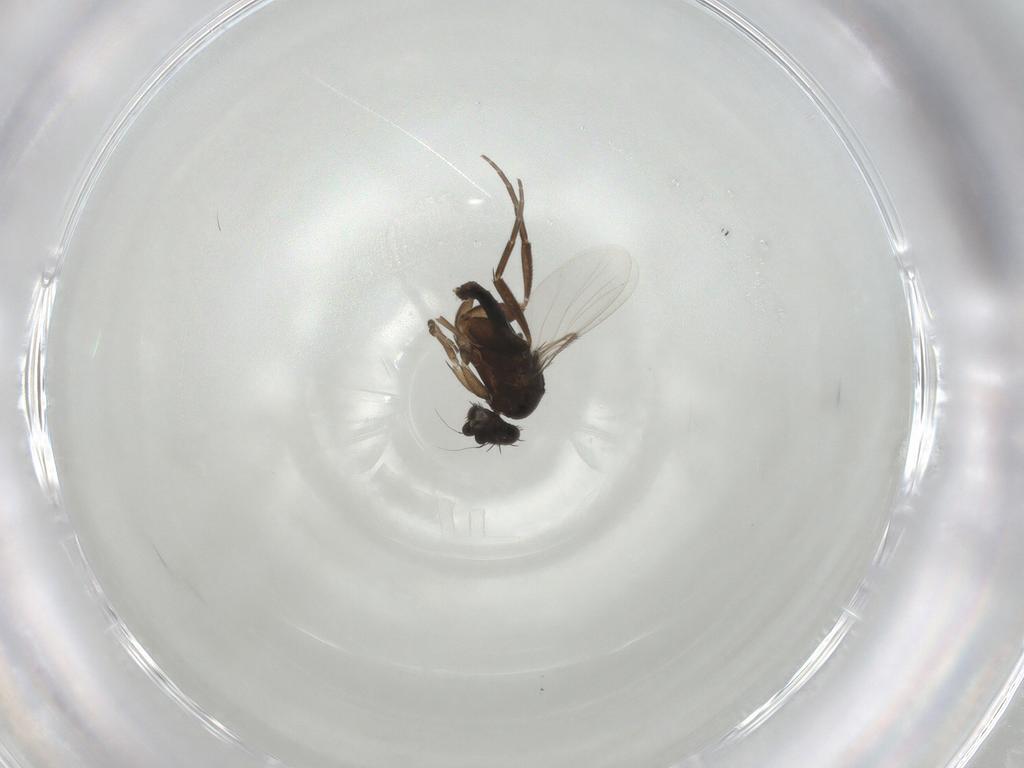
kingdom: Animalia
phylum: Arthropoda
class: Insecta
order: Diptera
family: Phoridae
